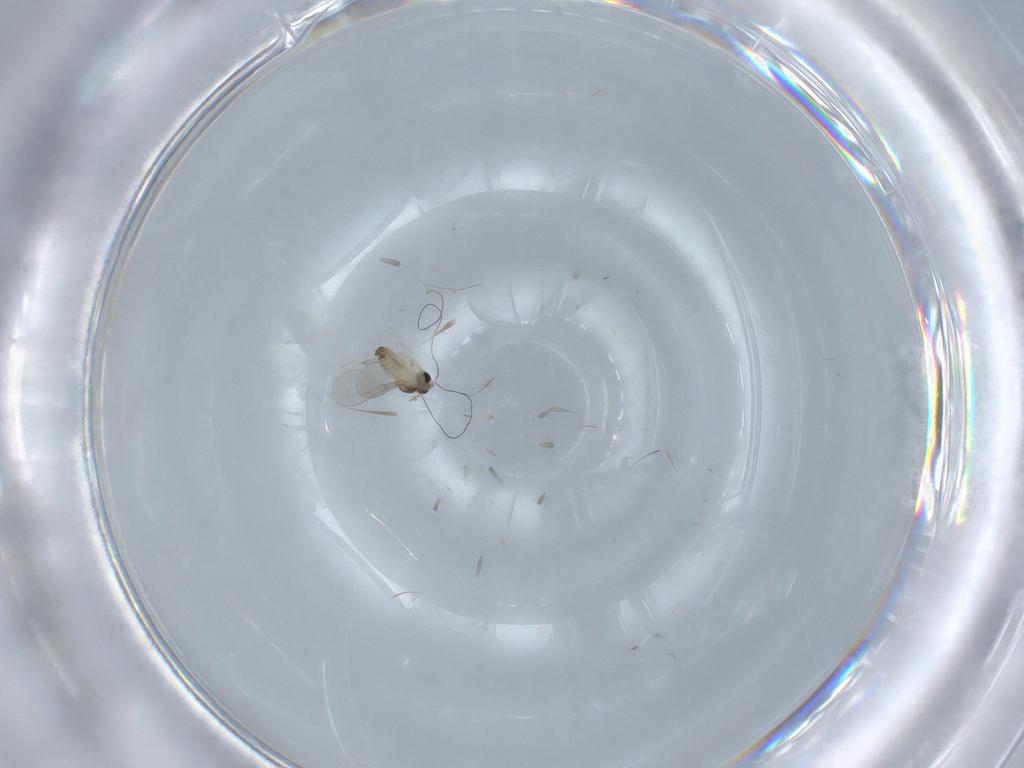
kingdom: Animalia
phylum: Arthropoda
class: Insecta
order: Diptera
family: Cecidomyiidae
